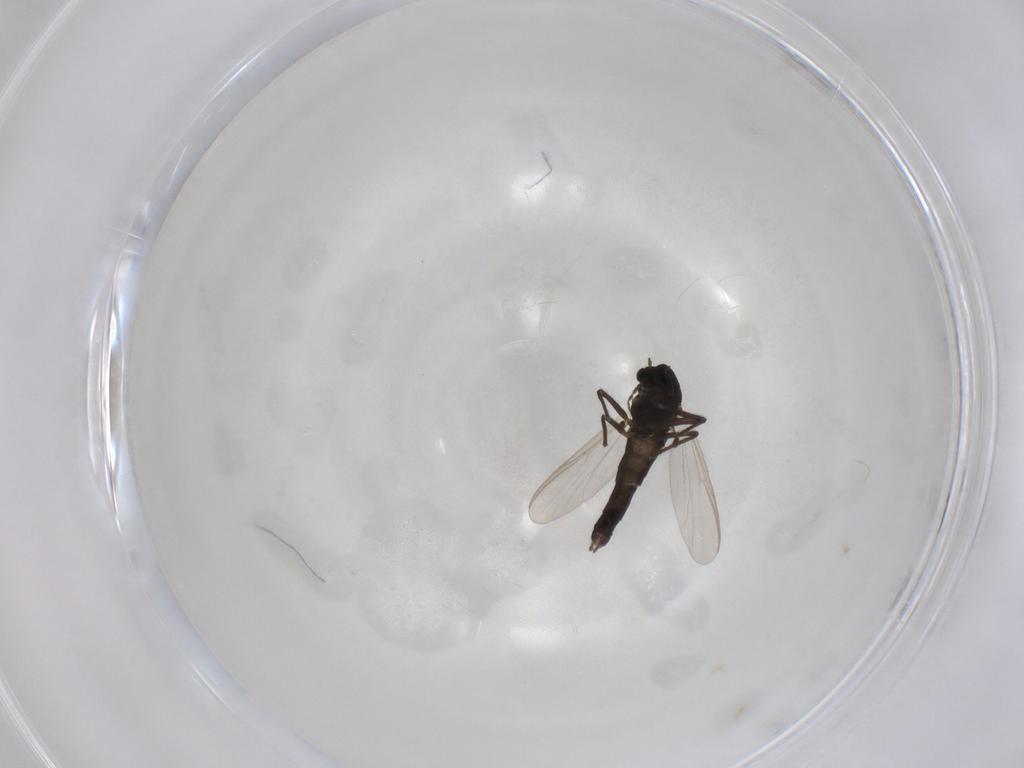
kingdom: Animalia
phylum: Arthropoda
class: Insecta
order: Diptera
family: Chironomidae
